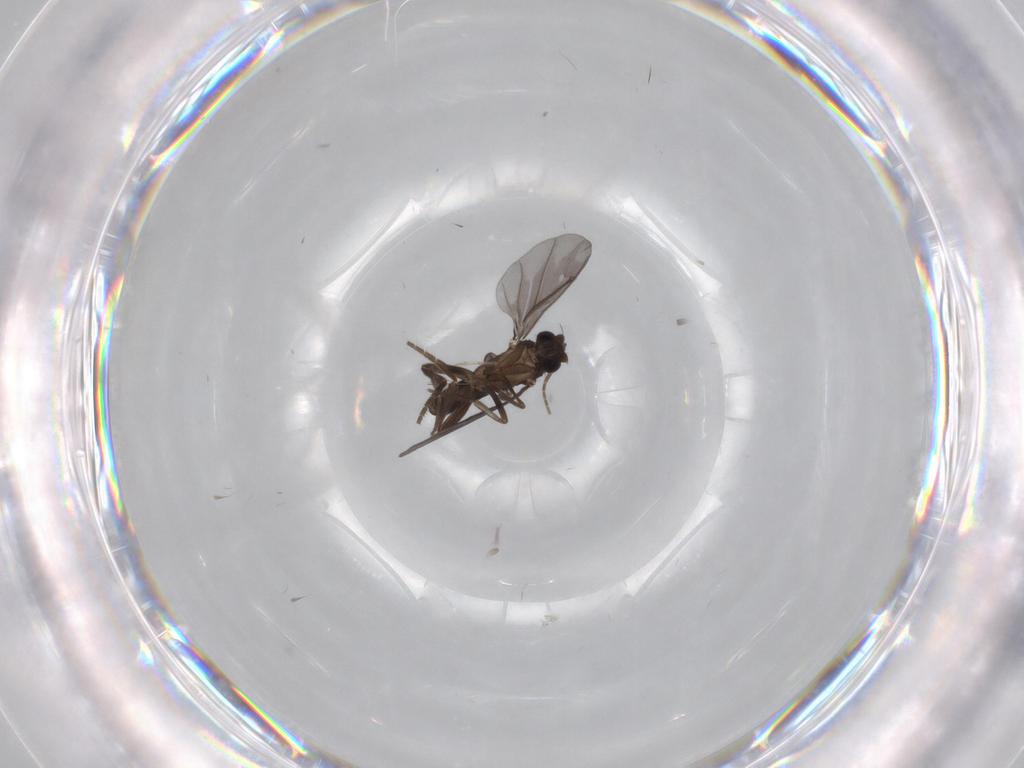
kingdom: Animalia
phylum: Arthropoda
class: Insecta
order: Diptera
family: Phoridae
